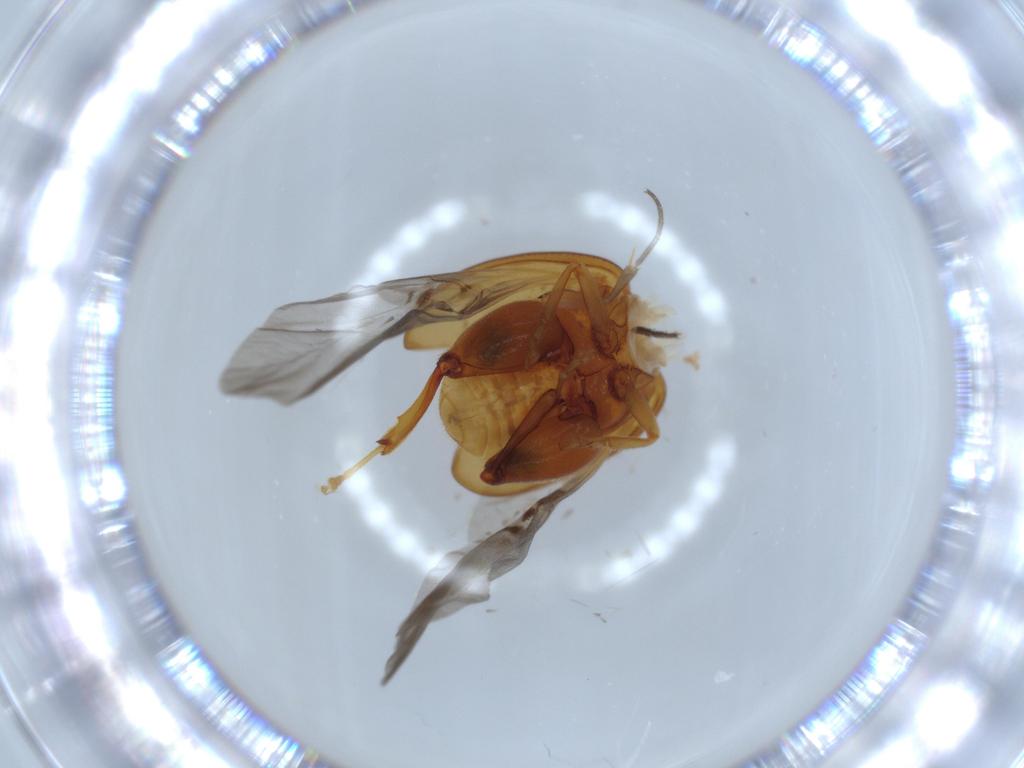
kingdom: Animalia
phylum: Arthropoda
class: Insecta
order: Coleoptera
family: Chrysomelidae
